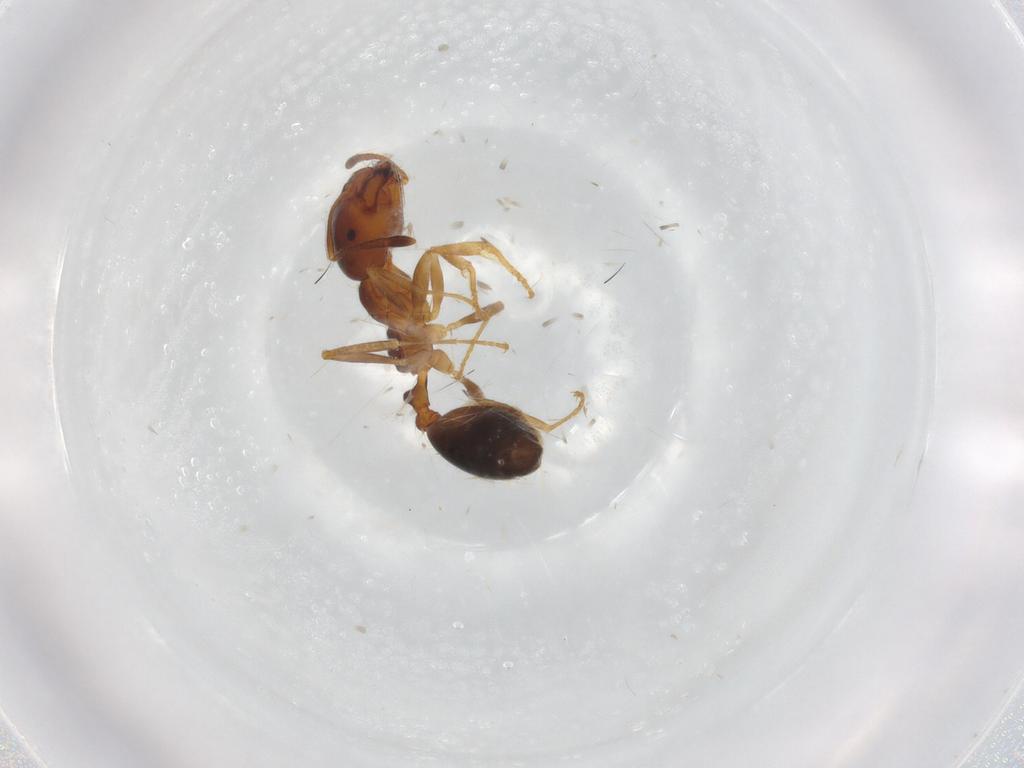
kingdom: Animalia
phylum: Arthropoda
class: Insecta
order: Hymenoptera
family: Formicidae
